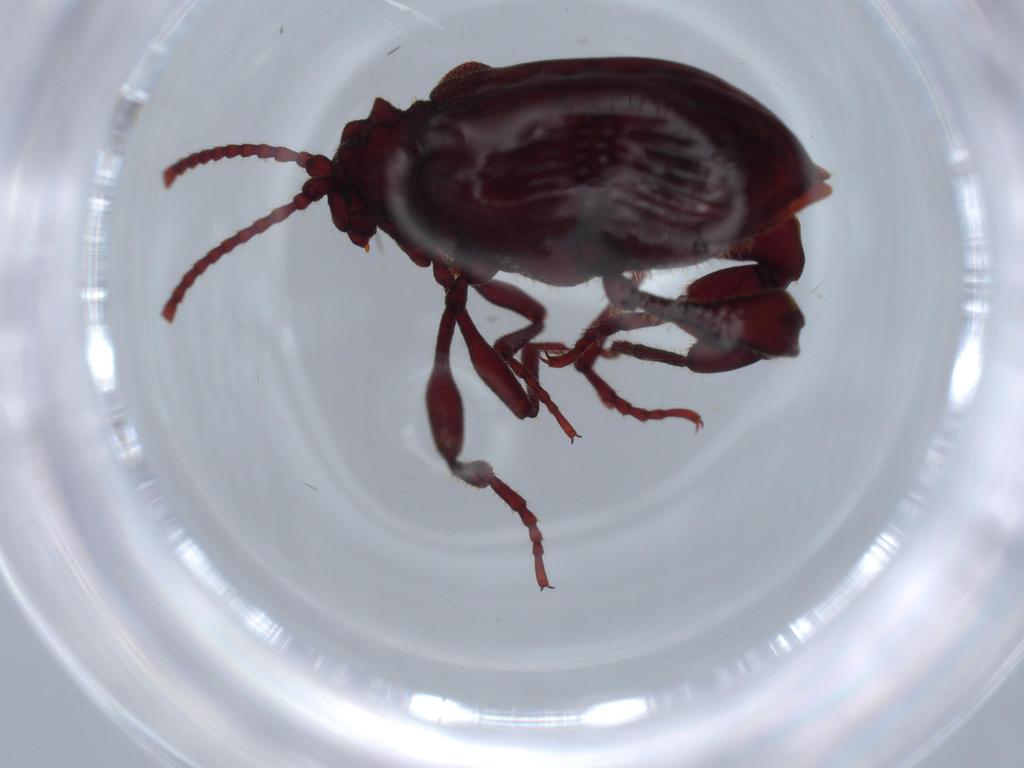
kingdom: Animalia
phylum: Arthropoda
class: Insecta
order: Coleoptera
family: Ptinidae
